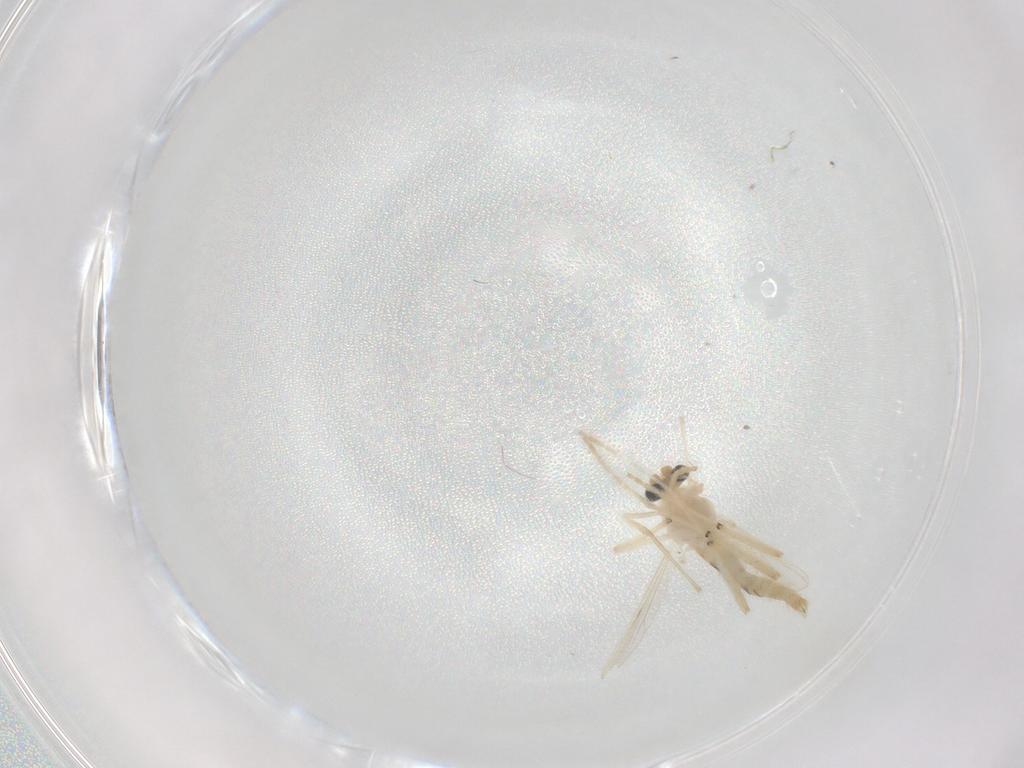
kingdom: Animalia
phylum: Arthropoda
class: Insecta
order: Diptera
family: Chironomidae
